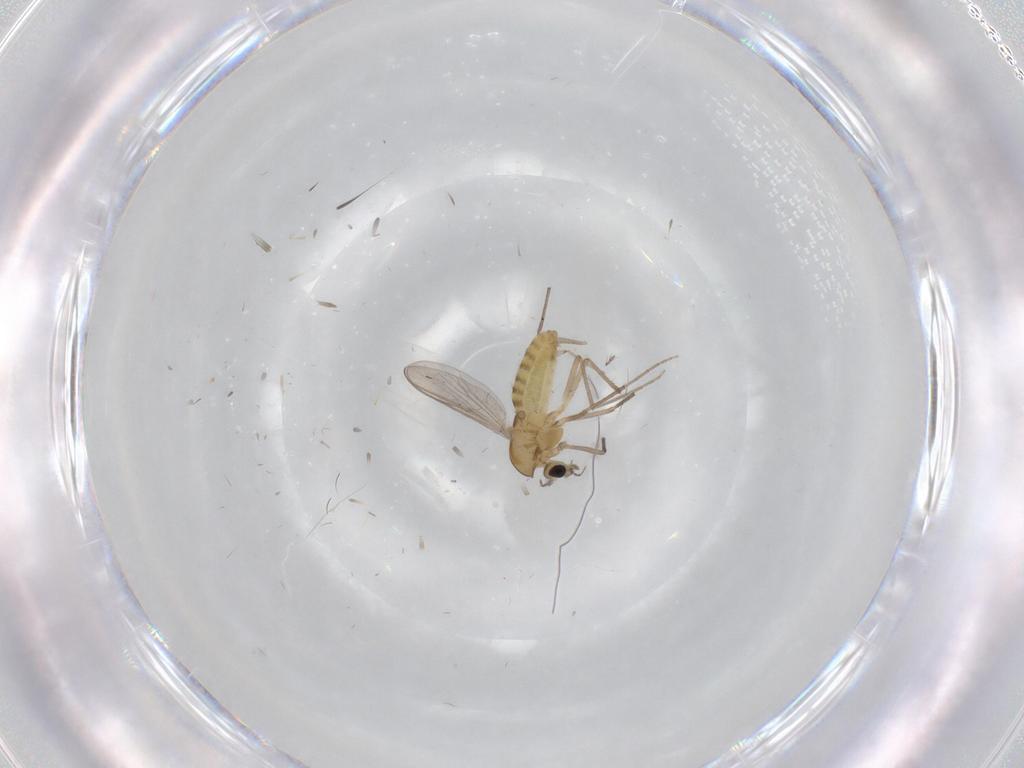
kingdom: Animalia
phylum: Arthropoda
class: Insecta
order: Diptera
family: Chironomidae
